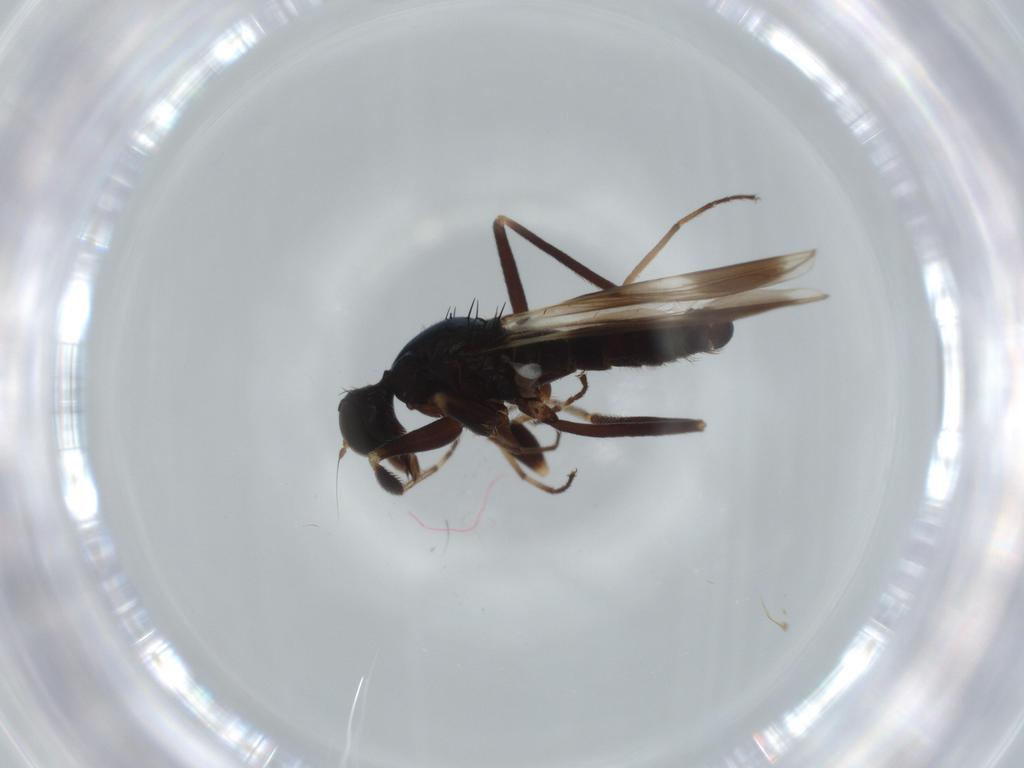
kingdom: Animalia
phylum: Arthropoda
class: Insecta
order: Diptera
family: Hybotidae
